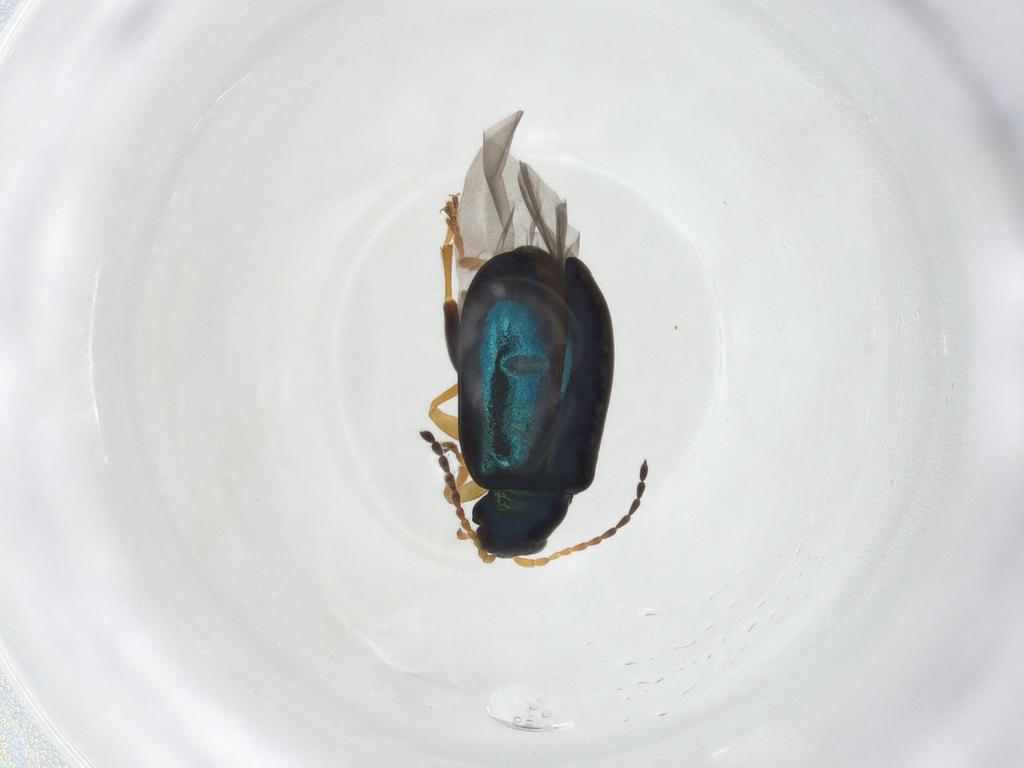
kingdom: Animalia
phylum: Arthropoda
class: Insecta
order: Coleoptera
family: Chrysomelidae
